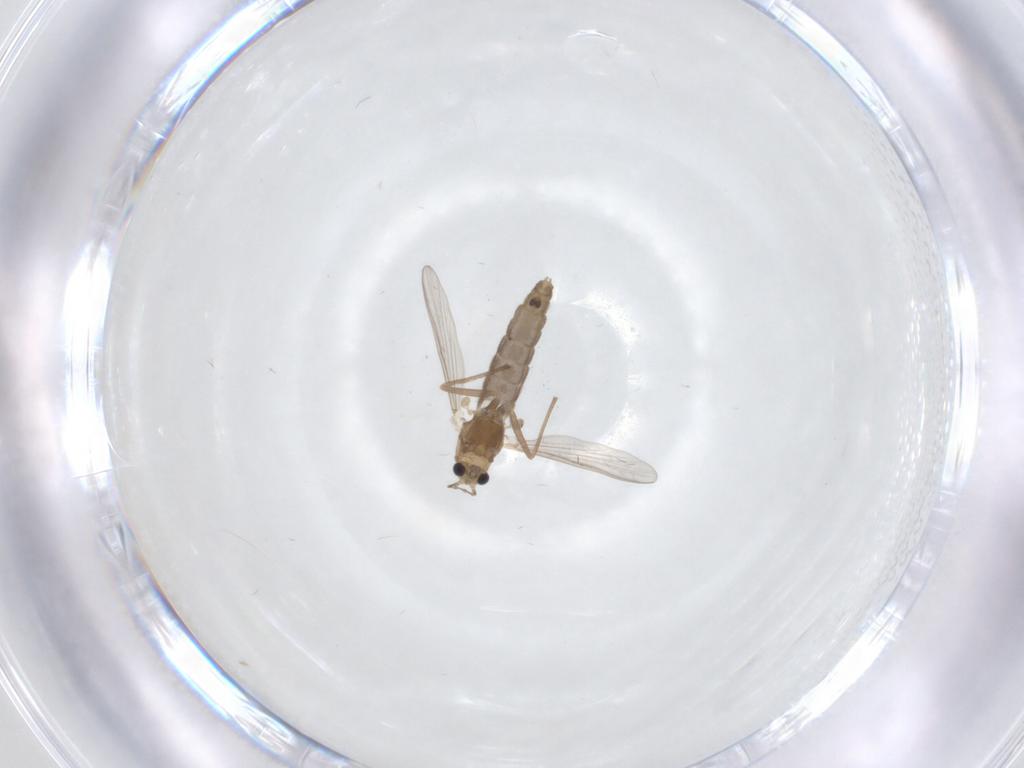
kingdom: Animalia
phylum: Arthropoda
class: Insecta
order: Diptera
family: Chironomidae
